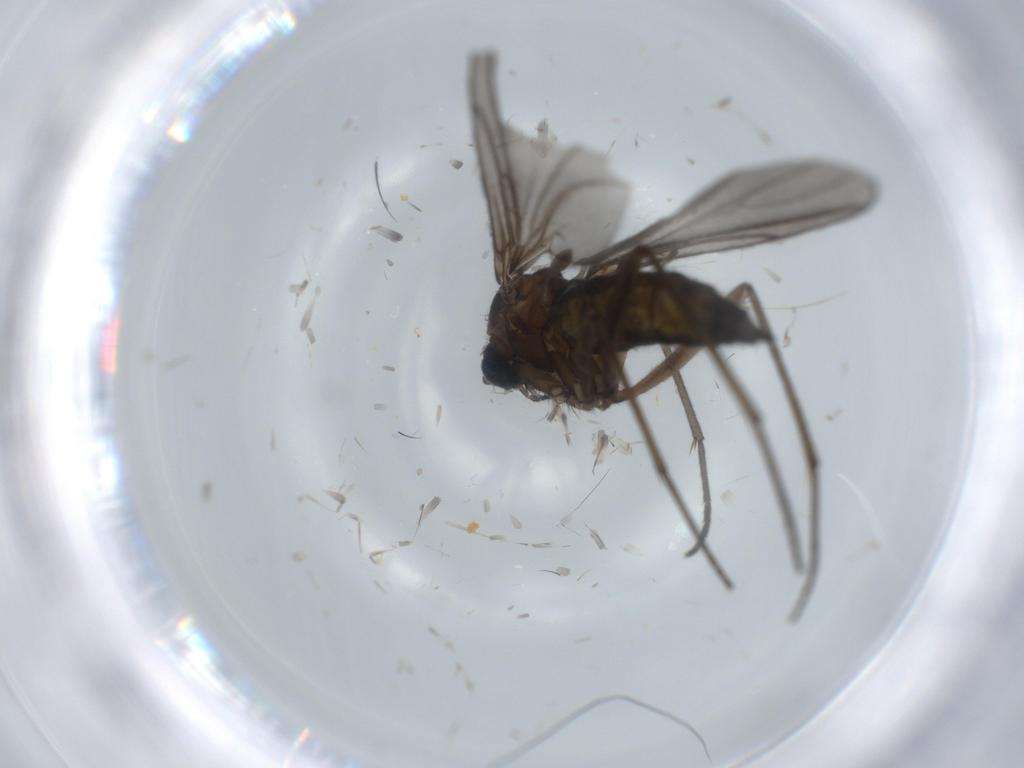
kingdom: Animalia
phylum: Arthropoda
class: Insecta
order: Diptera
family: Sciaridae
